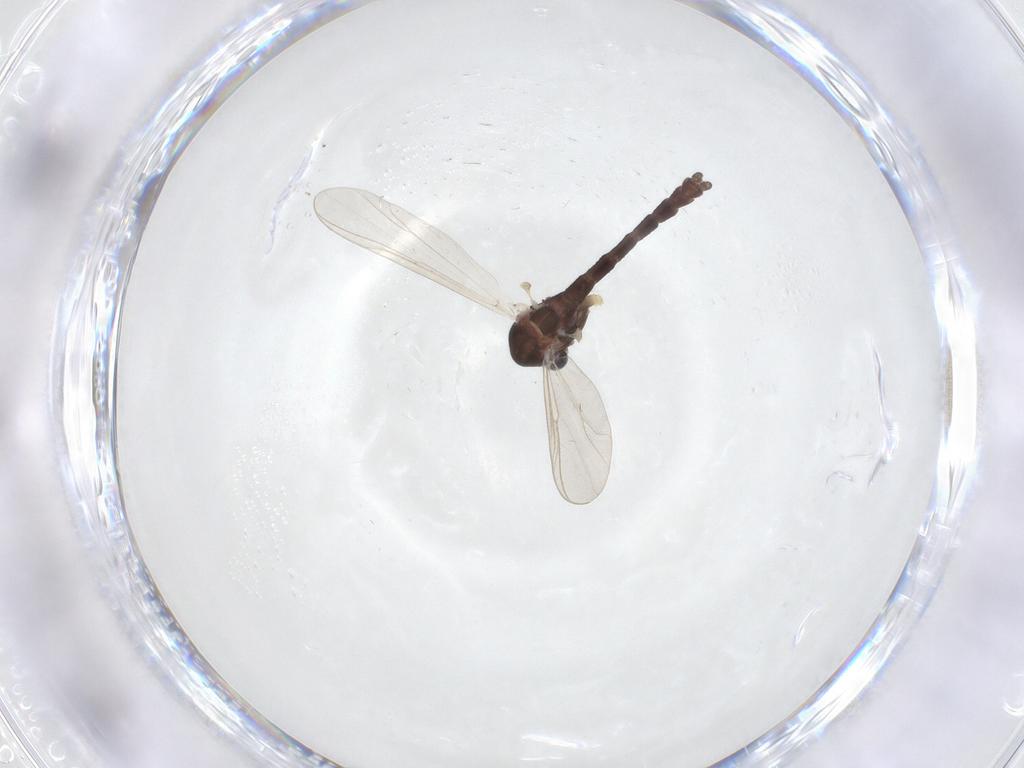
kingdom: Animalia
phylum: Arthropoda
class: Insecta
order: Diptera
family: Chironomidae
